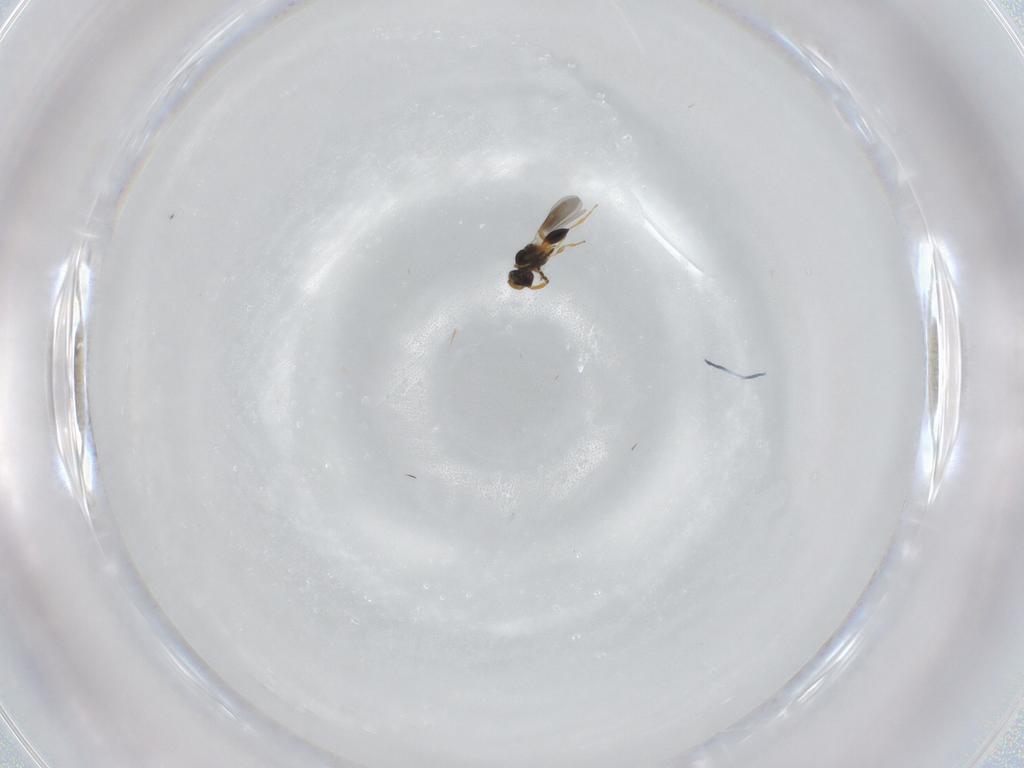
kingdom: Animalia
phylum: Arthropoda
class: Insecta
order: Hymenoptera
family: Platygastridae
